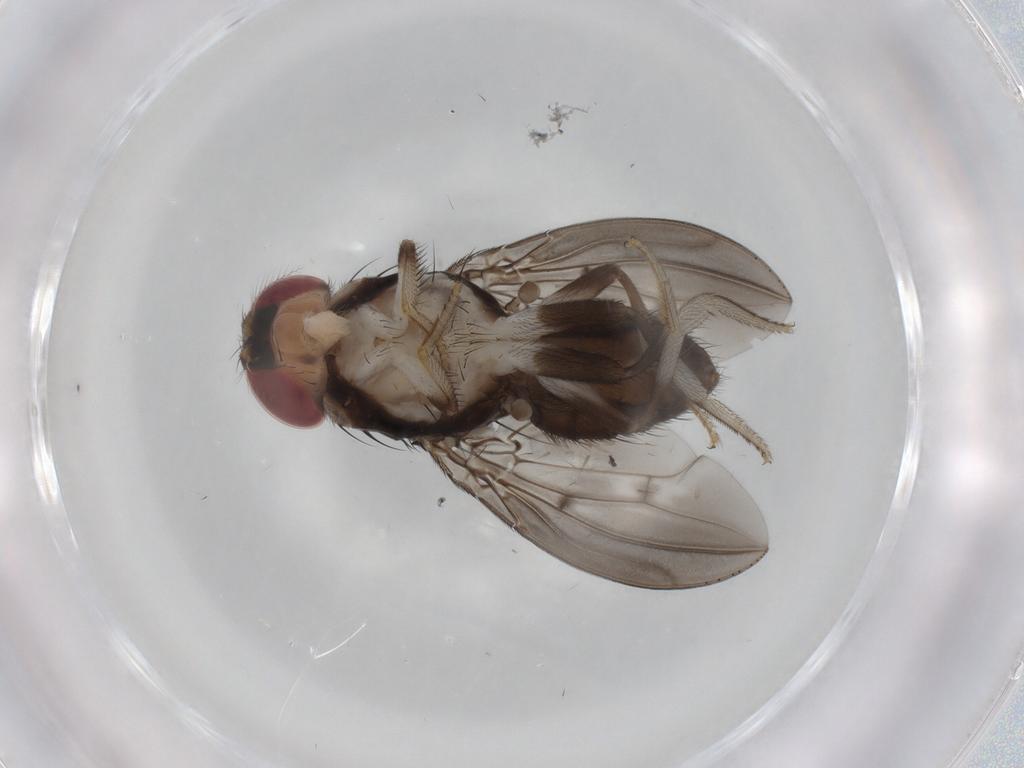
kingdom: Animalia
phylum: Arthropoda
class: Insecta
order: Diptera
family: Drosophilidae
